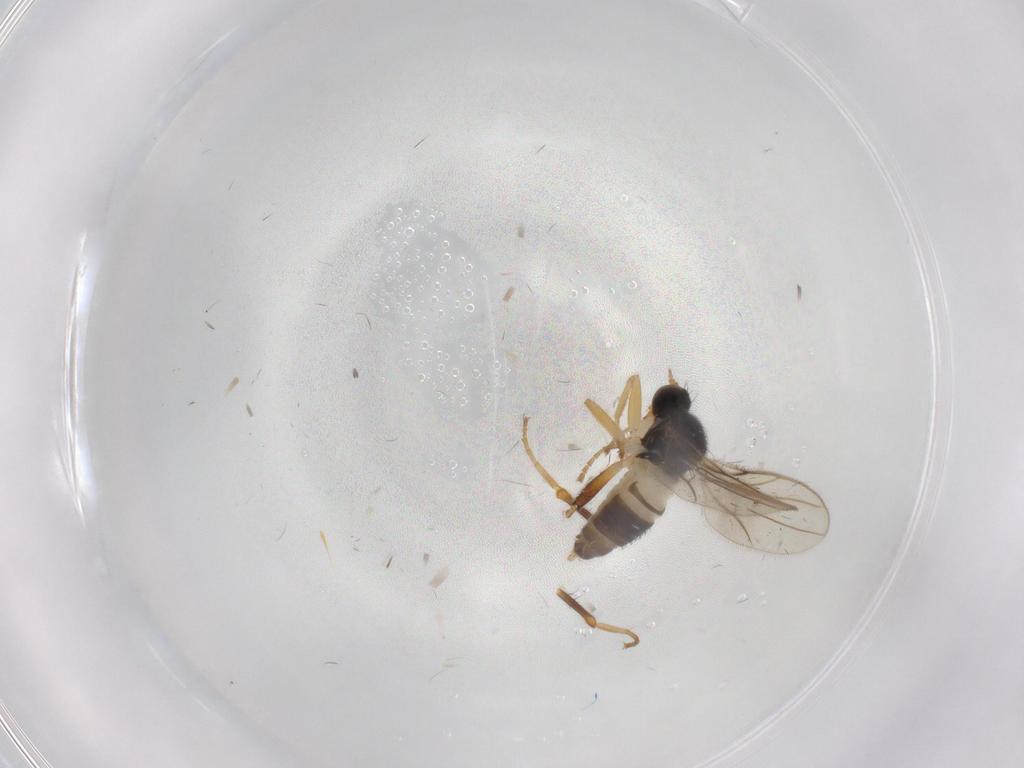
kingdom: Animalia
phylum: Arthropoda
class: Insecta
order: Diptera
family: Hybotidae
